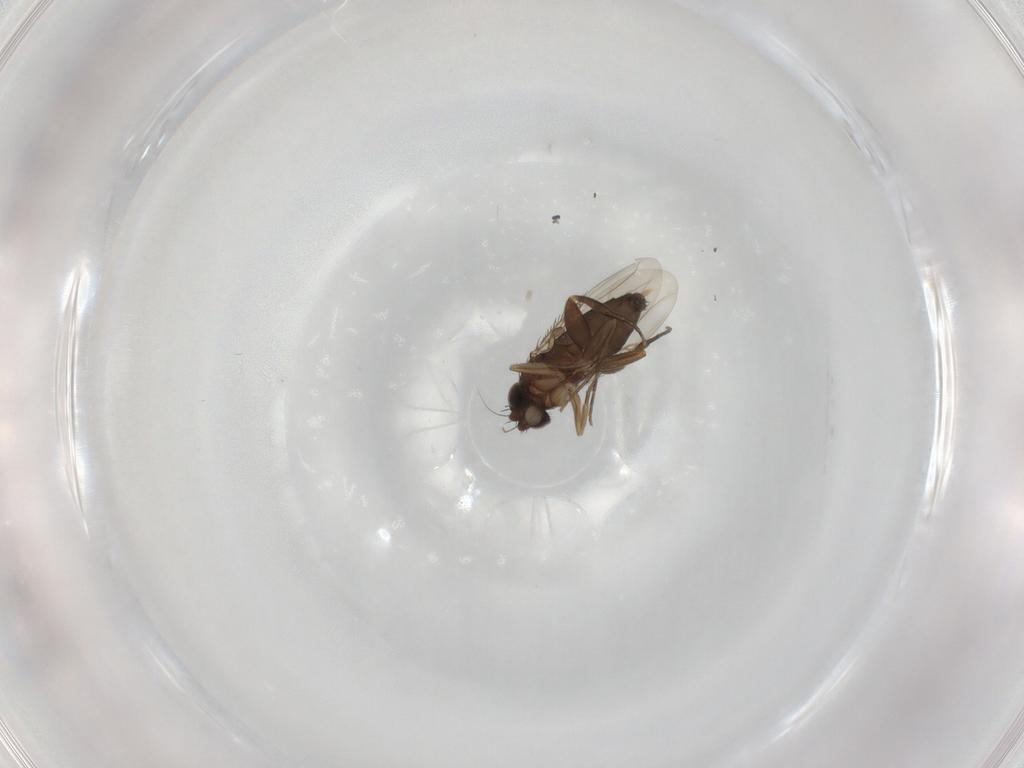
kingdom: Animalia
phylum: Arthropoda
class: Insecta
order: Diptera
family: Phoridae
